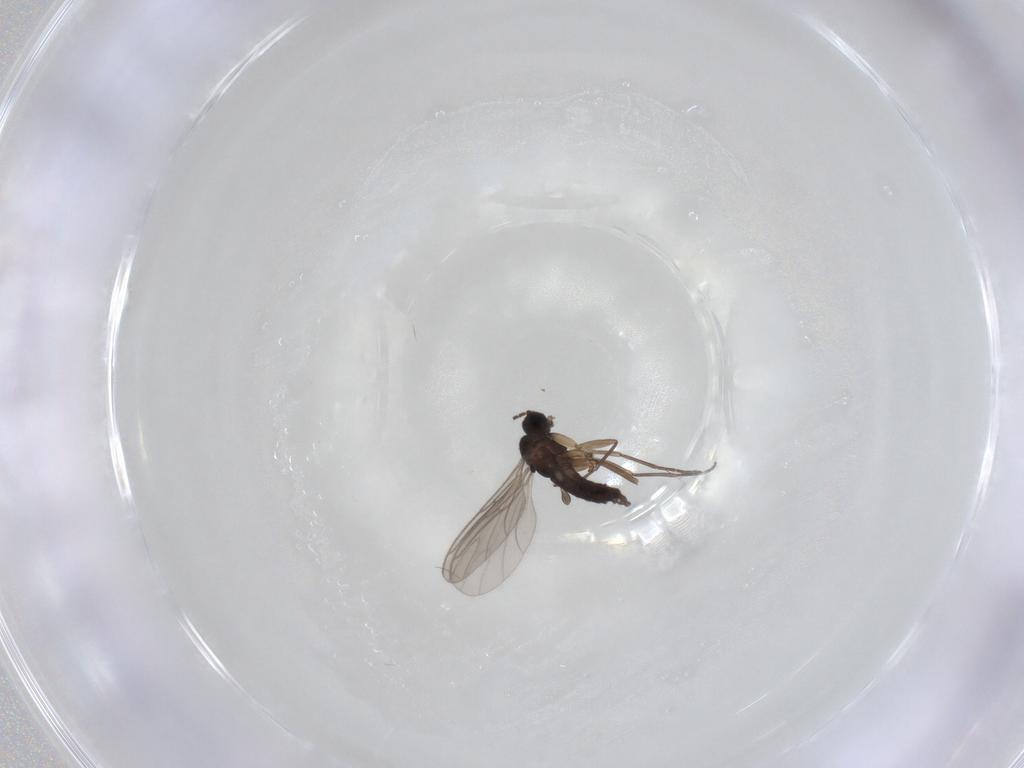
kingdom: Animalia
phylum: Arthropoda
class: Insecta
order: Diptera
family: Sciaridae
